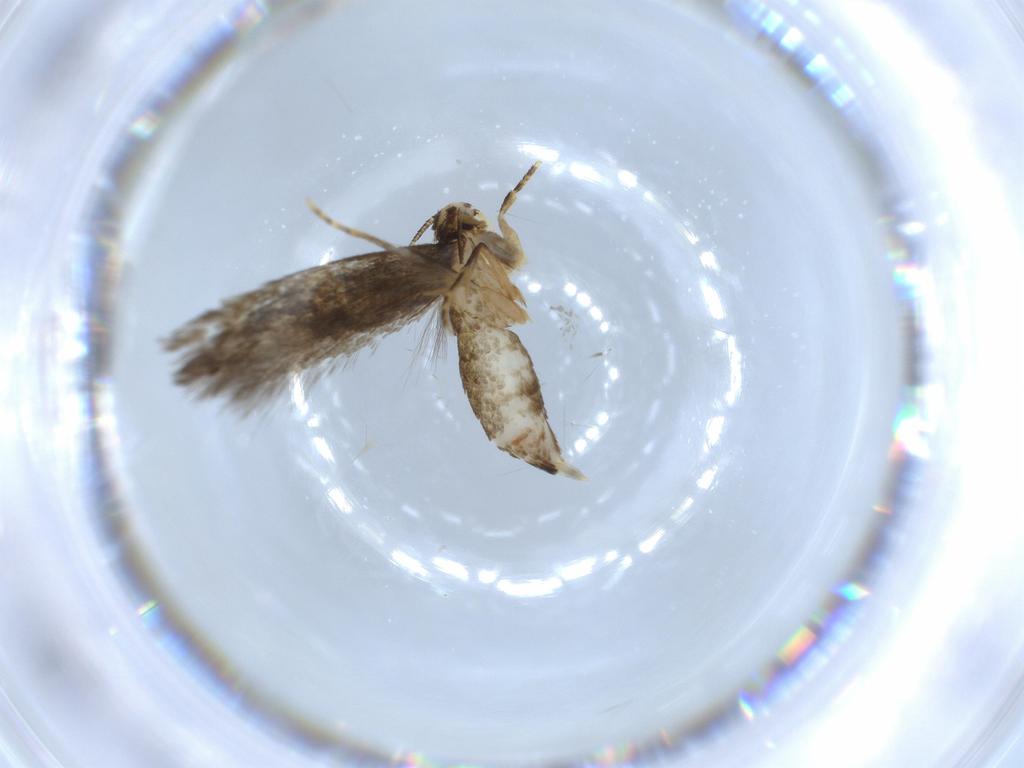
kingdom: Animalia
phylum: Arthropoda
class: Insecta
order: Lepidoptera
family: Tineidae
